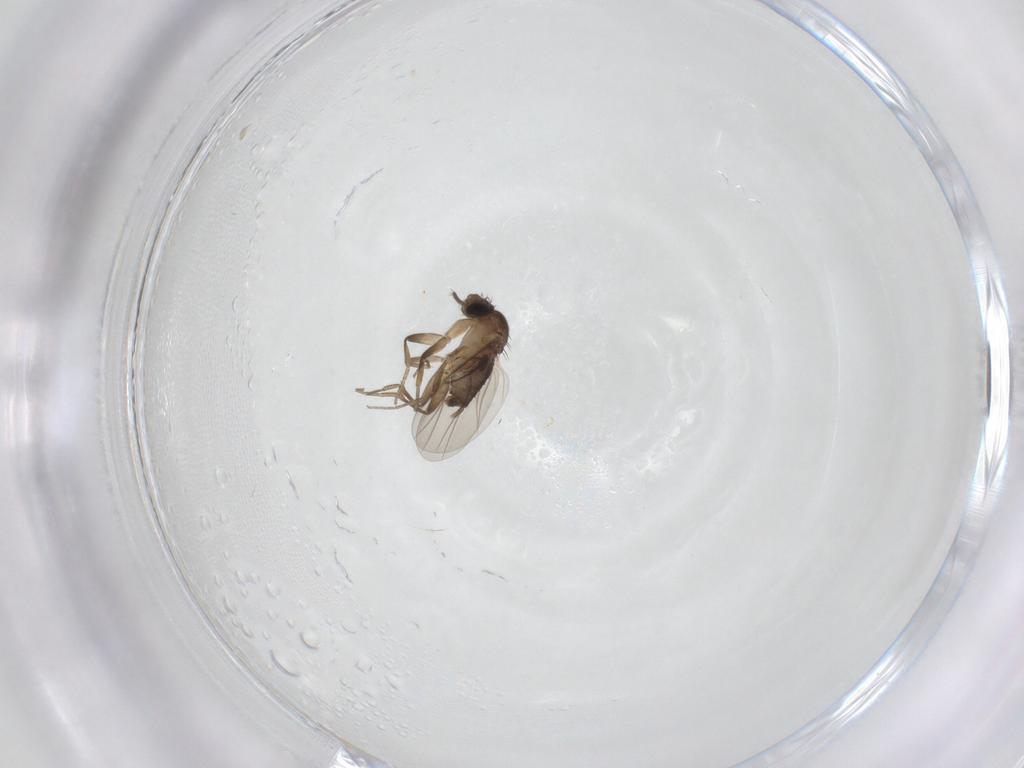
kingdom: Animalia
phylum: Arthropoda
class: Insecta
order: Diptera
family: Phoridae
